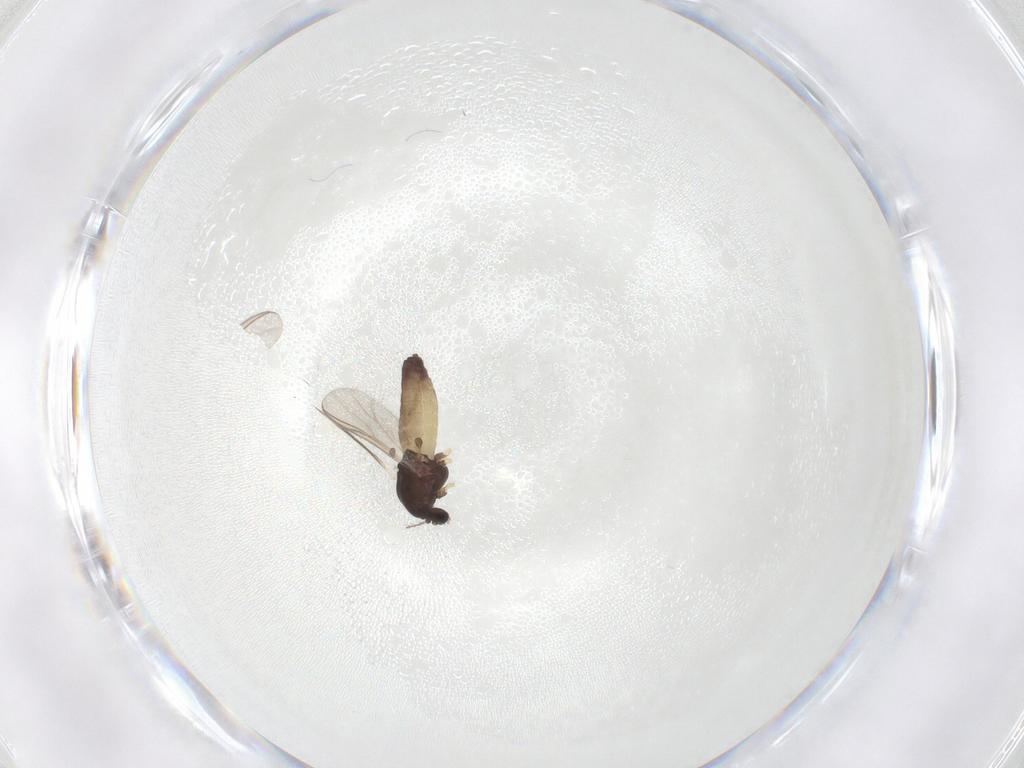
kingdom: Animalia
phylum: Arthropoda
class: Insecta
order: Diptera
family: Chironomidae
